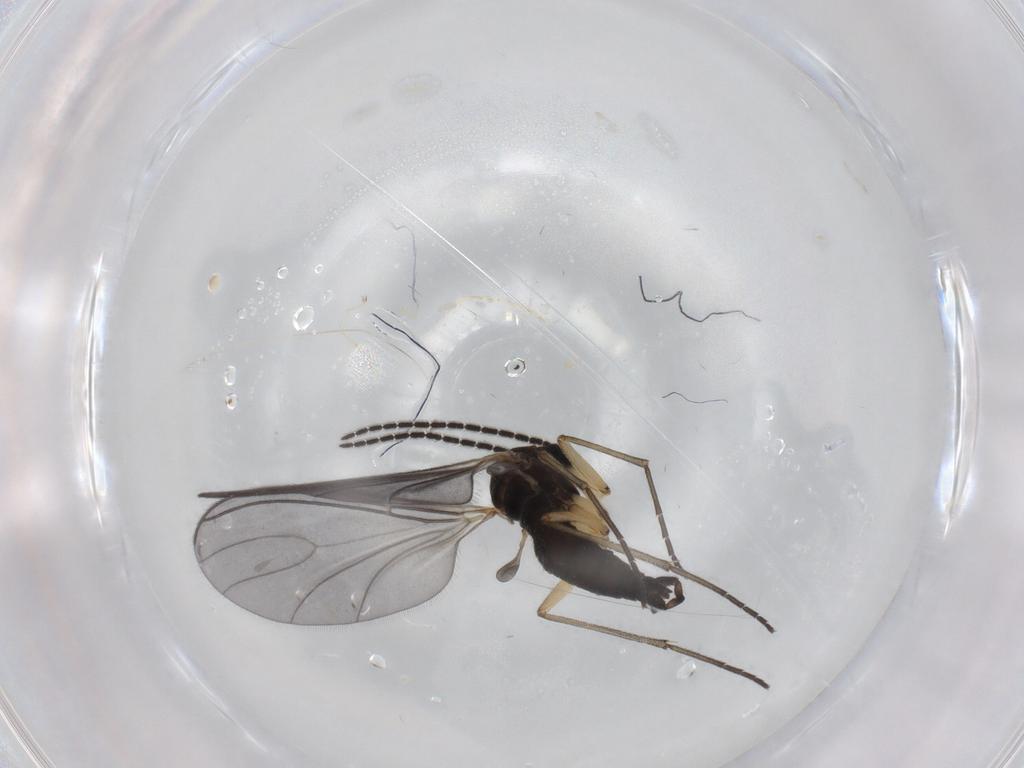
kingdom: Animalia
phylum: Arthropoda
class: Insecta
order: Diptera
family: Sciaridae
